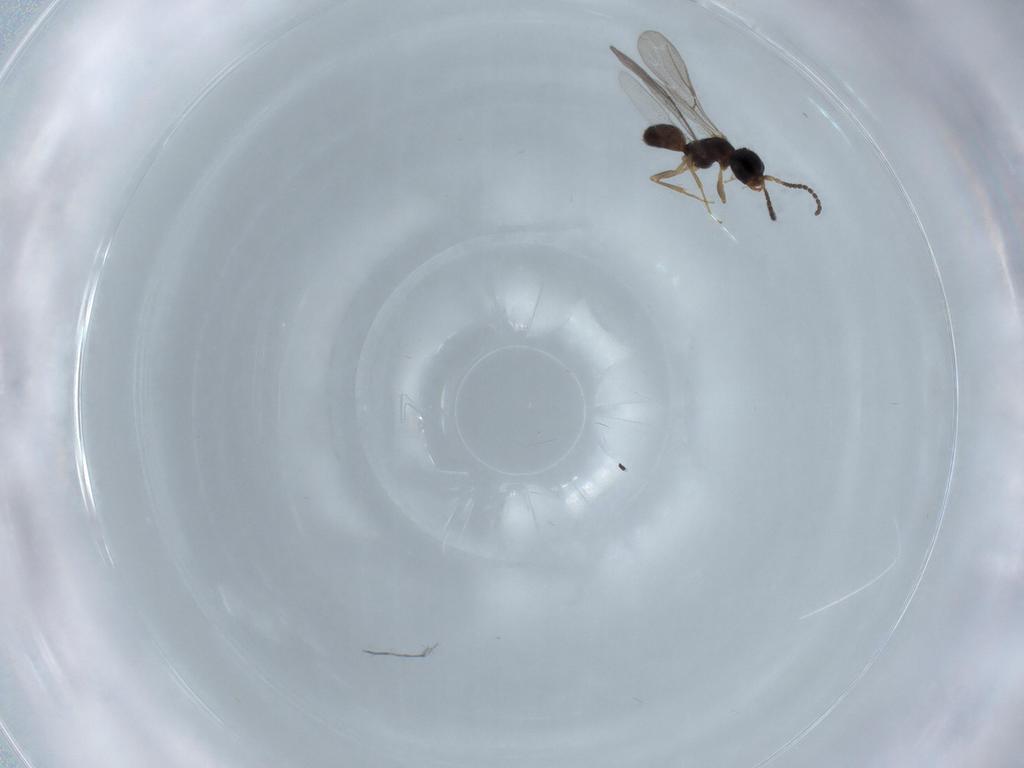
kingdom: Animalia
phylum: Arthropoda
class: Insecta
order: Hymenoptera
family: Bethylidae
